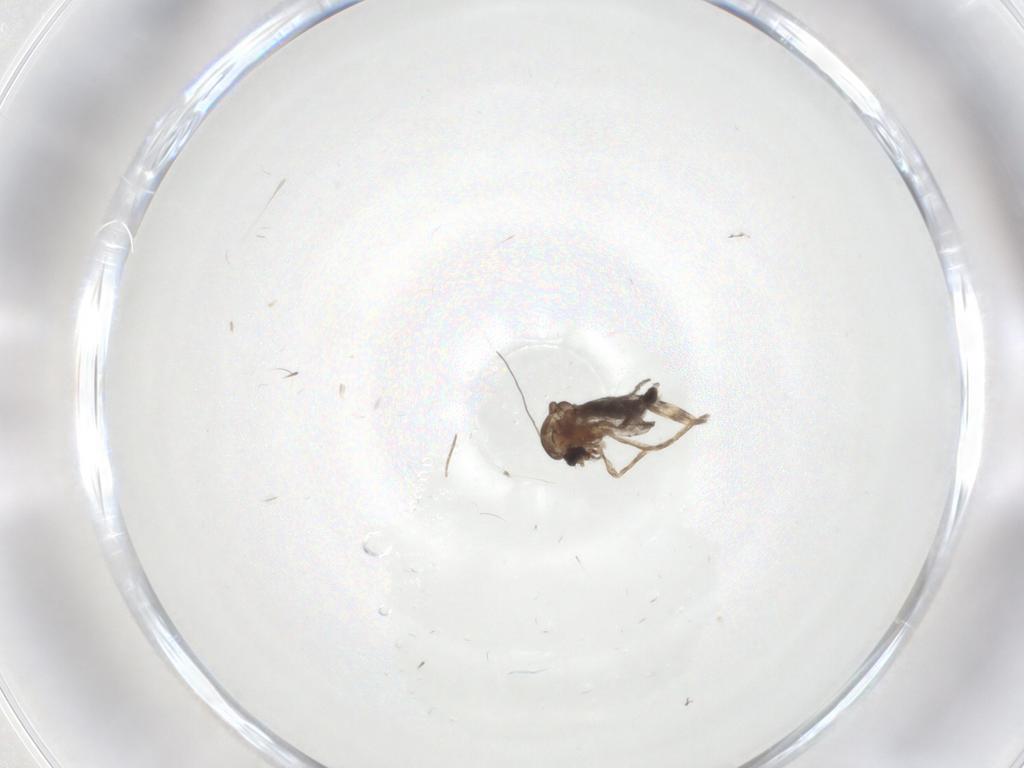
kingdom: Animalia
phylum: Arthropoda
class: Insecta
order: Diptera
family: Ceratopogonidae
